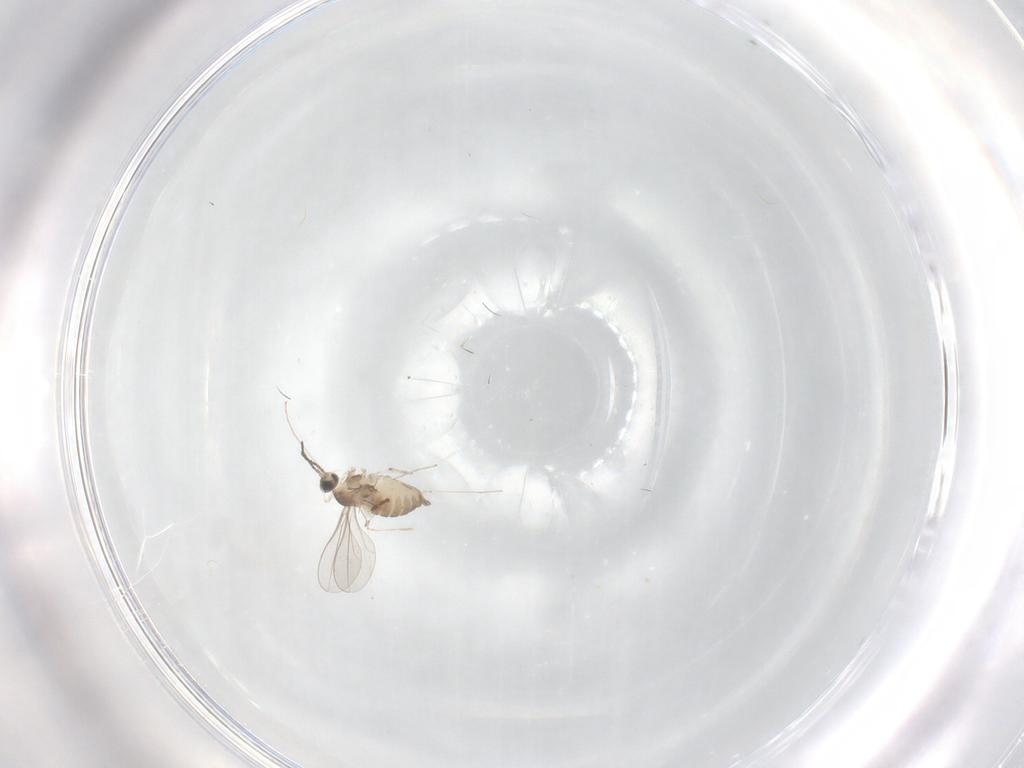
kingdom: Animalia
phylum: Arthropoda
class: Insecta
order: Diptera
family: Cecidomyiidae
